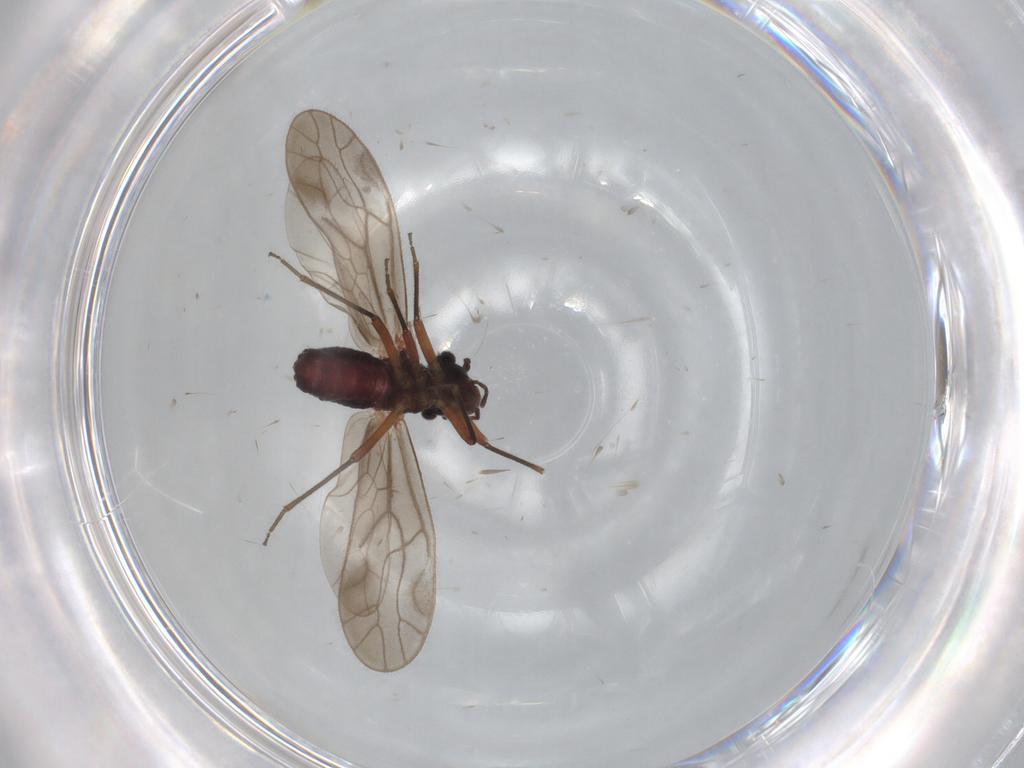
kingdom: Animalia
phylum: Arthropoda
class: Insecta
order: Psocodea
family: Trichopsocidae
